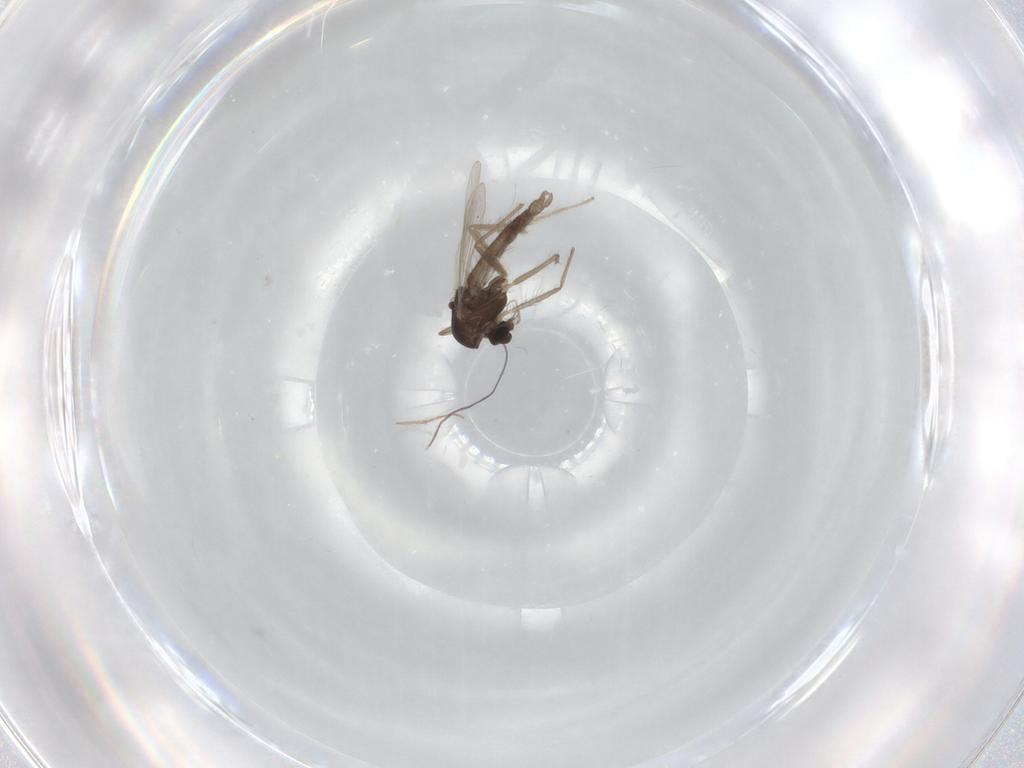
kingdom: Animalia
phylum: Arthropoda
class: Insecta
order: Diptera
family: Chironomidae
